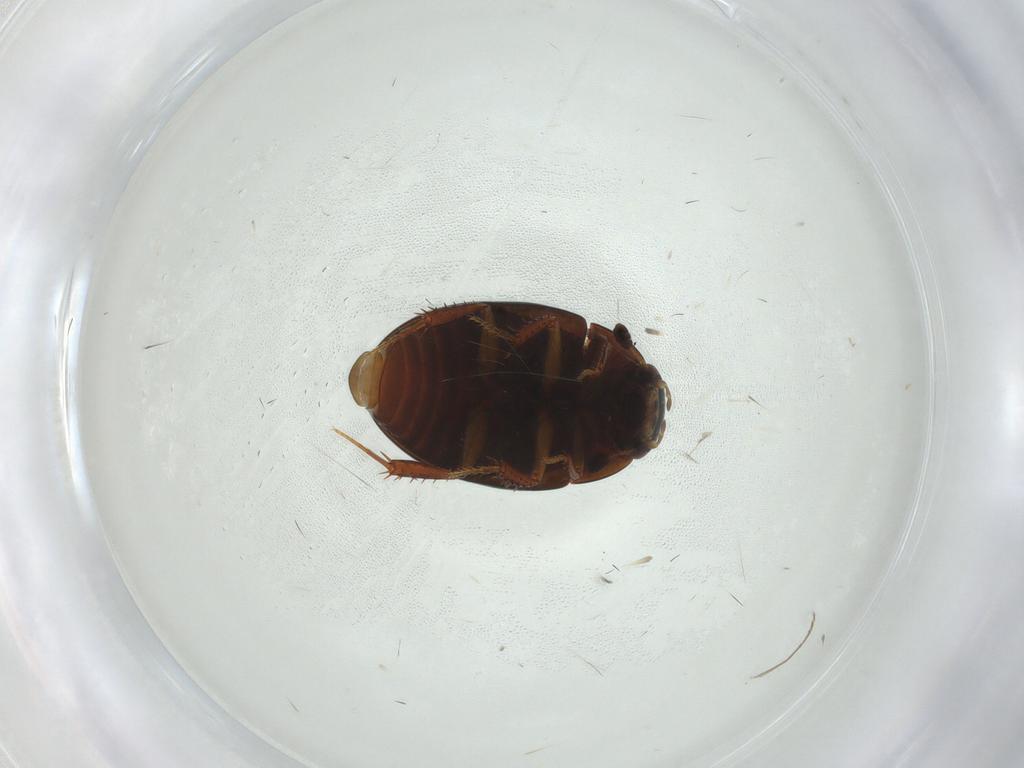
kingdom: Animalia
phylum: Arthropoda
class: Insecta
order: Coleoptera
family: Hydrophilidae
